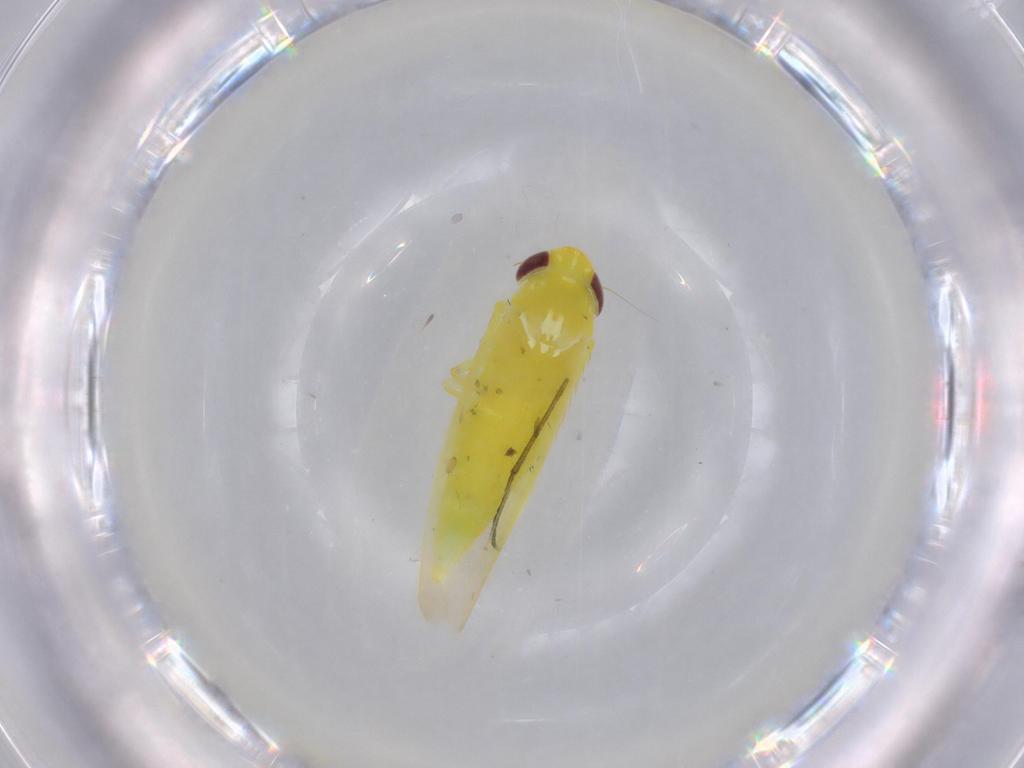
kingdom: Animalia
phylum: Arthropoda
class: Insecta
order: Hemiptera
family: Cicadellidae
